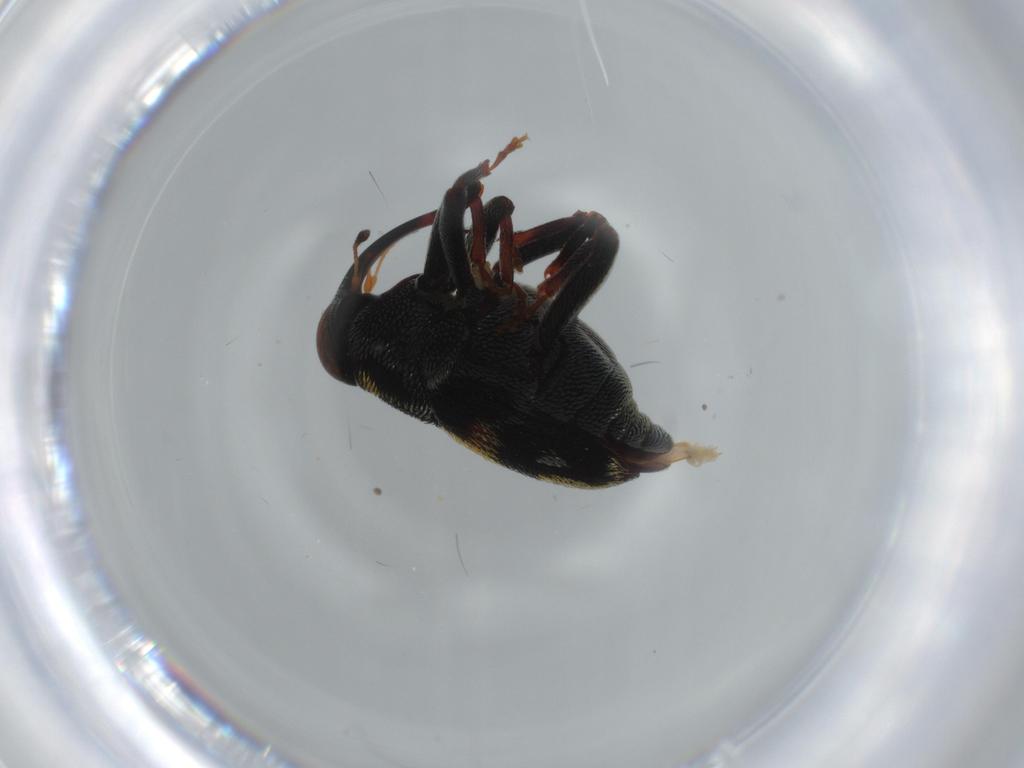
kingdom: Animalia
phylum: Arthropoda
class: Insecta
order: Coleoptera
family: Curculionidae
